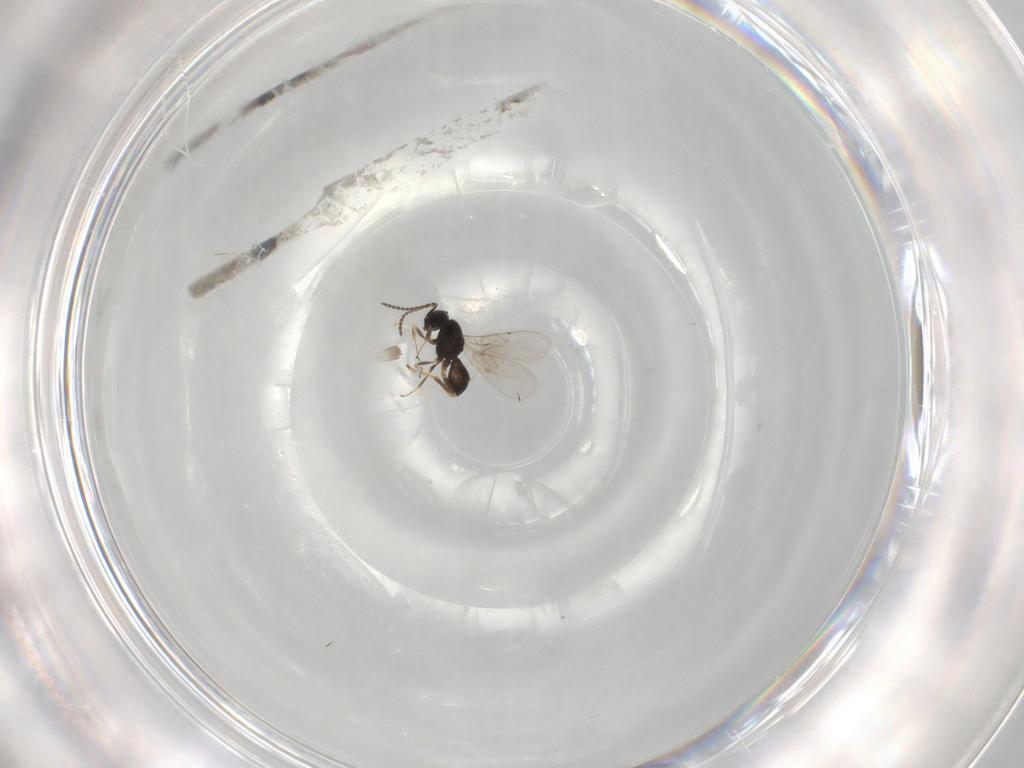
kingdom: Animalia
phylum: Arthropoda
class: Insecta
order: Hymenoptera
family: Scelionidae
